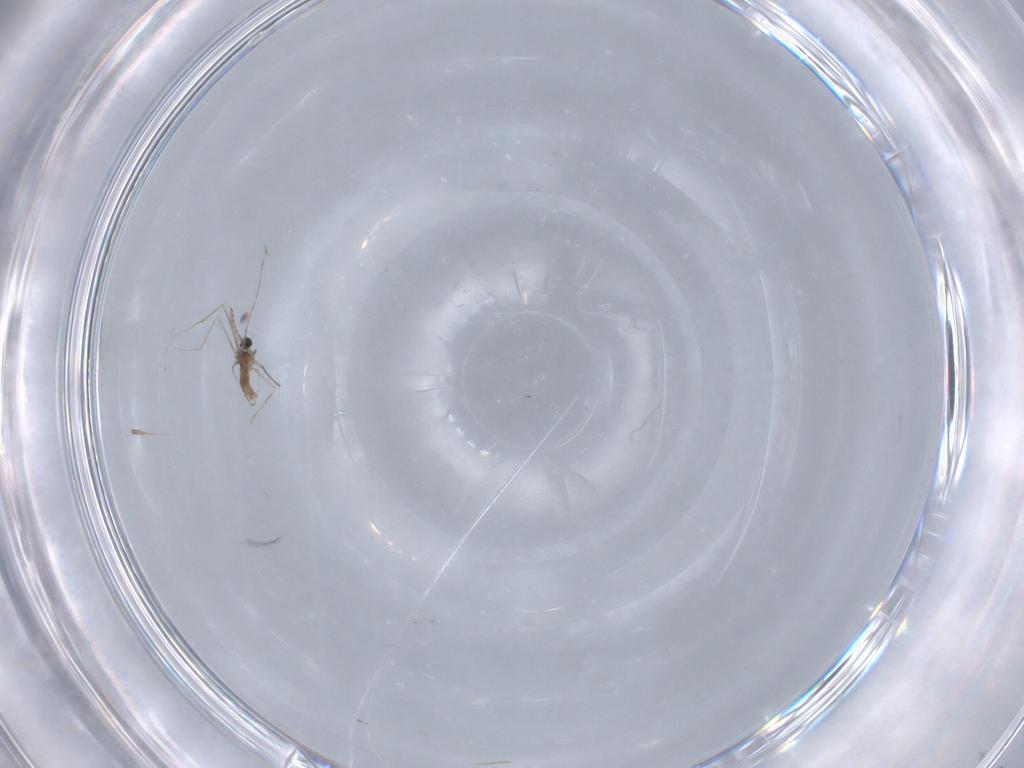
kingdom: Animalia
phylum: Arthropoda
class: Insecta
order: Diptera
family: Cecidomyiidae
